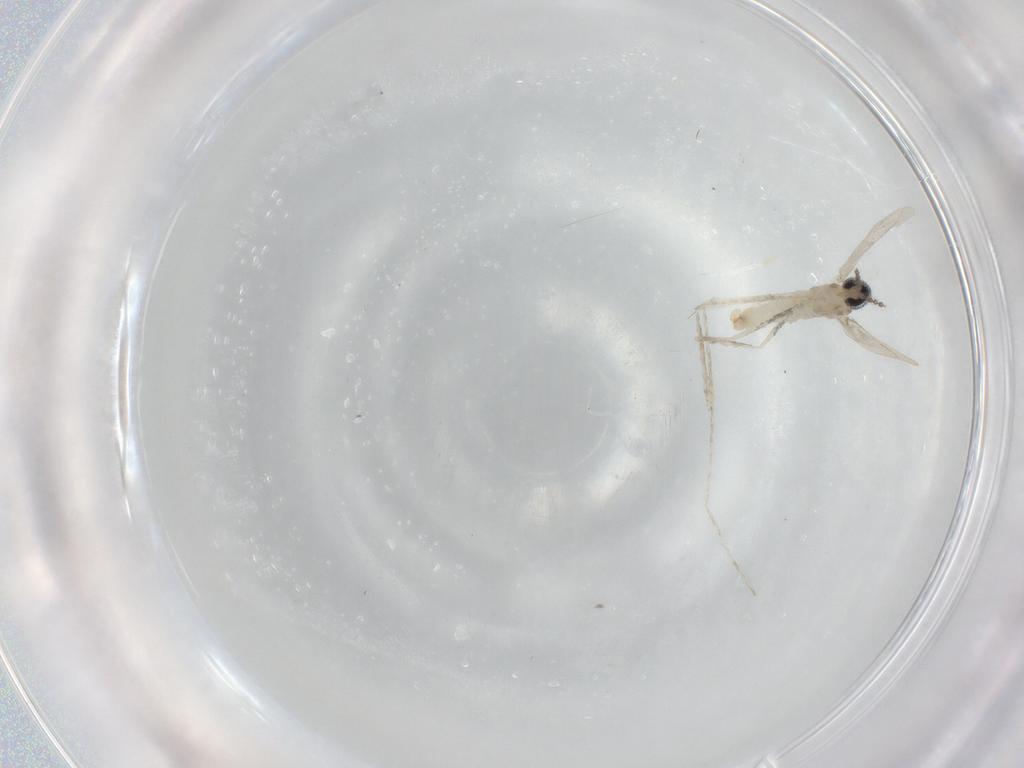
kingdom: Animalia
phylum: Arthropoda
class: Insecta
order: Diptera
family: Cecidomyiidae
